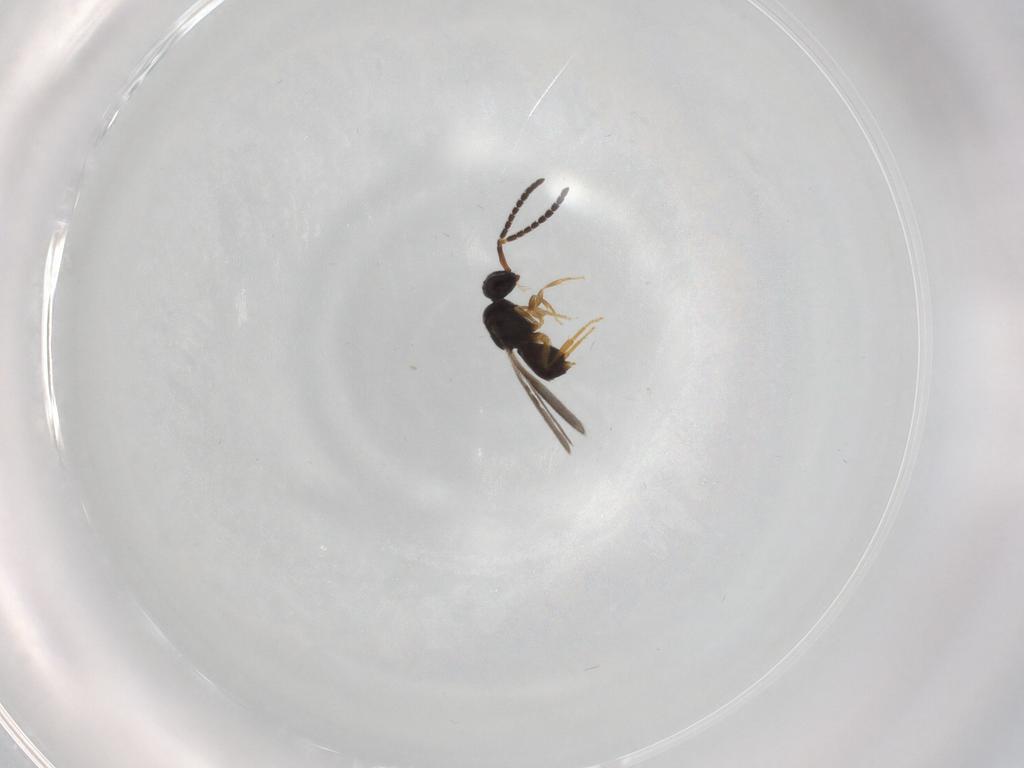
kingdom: Animalia
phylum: Arthropoda
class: Insecta
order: Hymenoptera
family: Ceraphronidae
